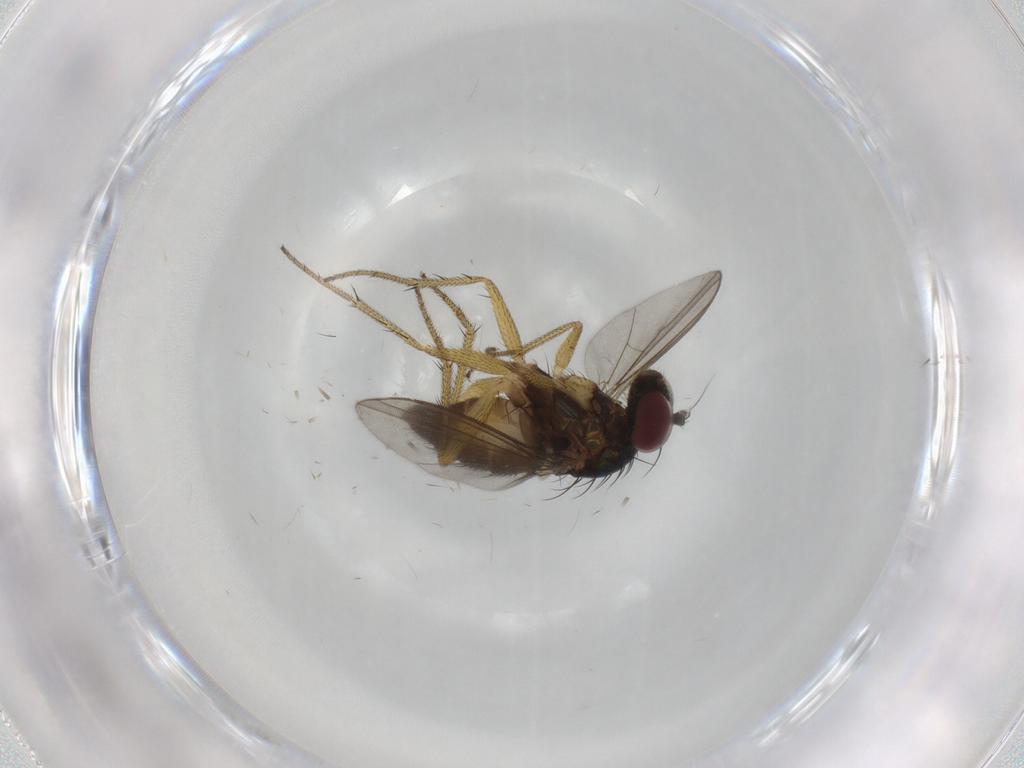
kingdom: Animalia
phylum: Arthropoda
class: Insecta
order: Diptera
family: Dolichopodidae
